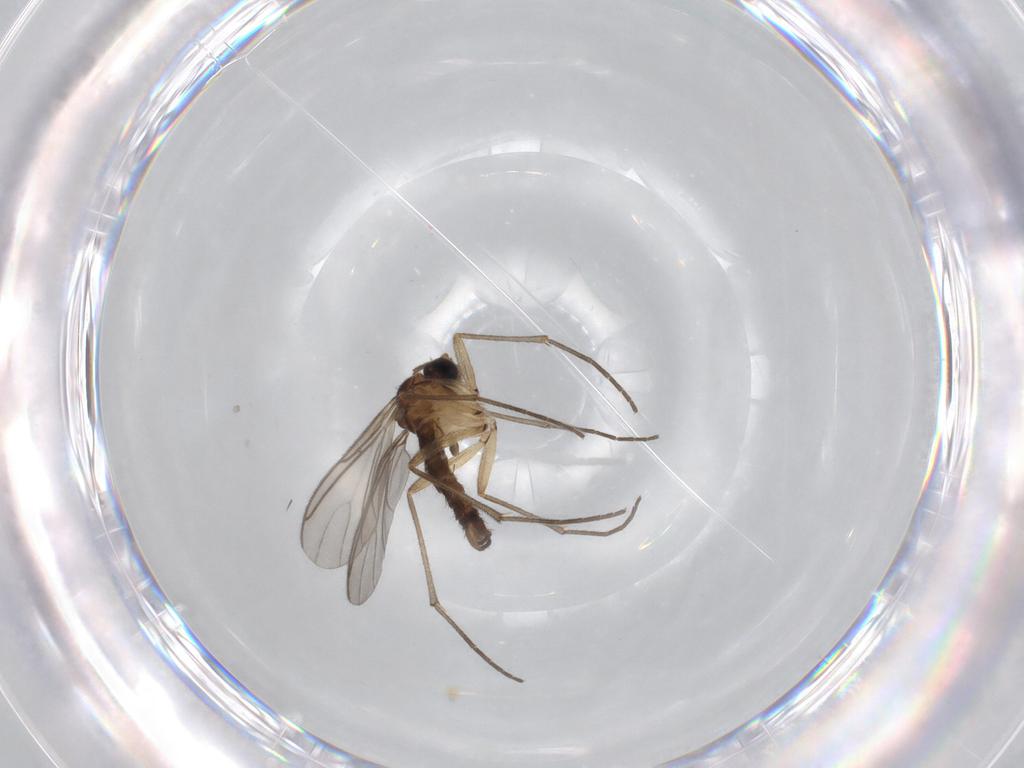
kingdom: Animalia
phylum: Arthropoda
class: Insecta
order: Diptera
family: Sciaridae
